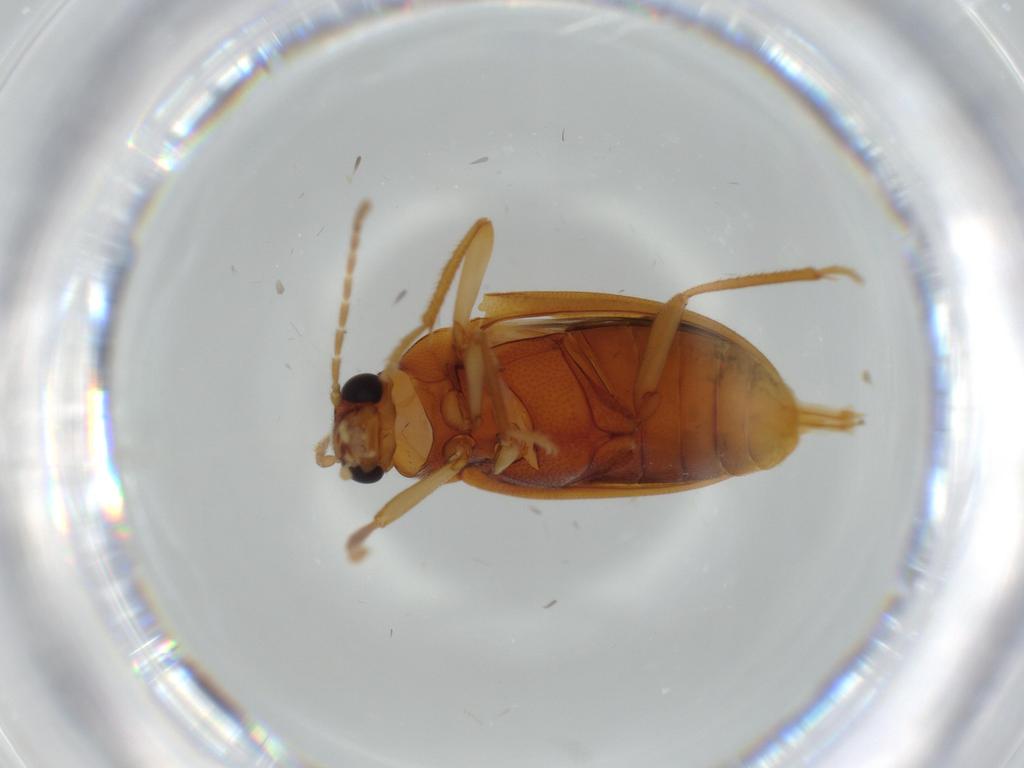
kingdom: Animalia
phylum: Arthropoda
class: Insecta
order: Coleoptera
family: Ptilodactylidae
